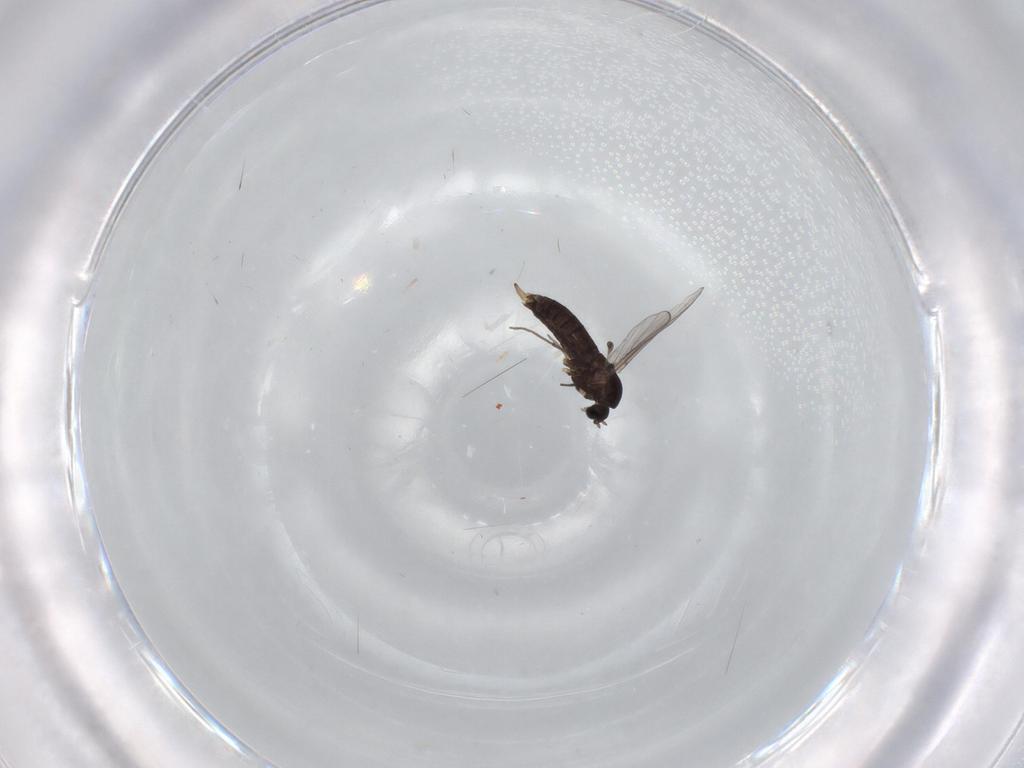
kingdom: Animalia
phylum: Arthropoda
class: Insecta
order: Diptera
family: Chironomidae
